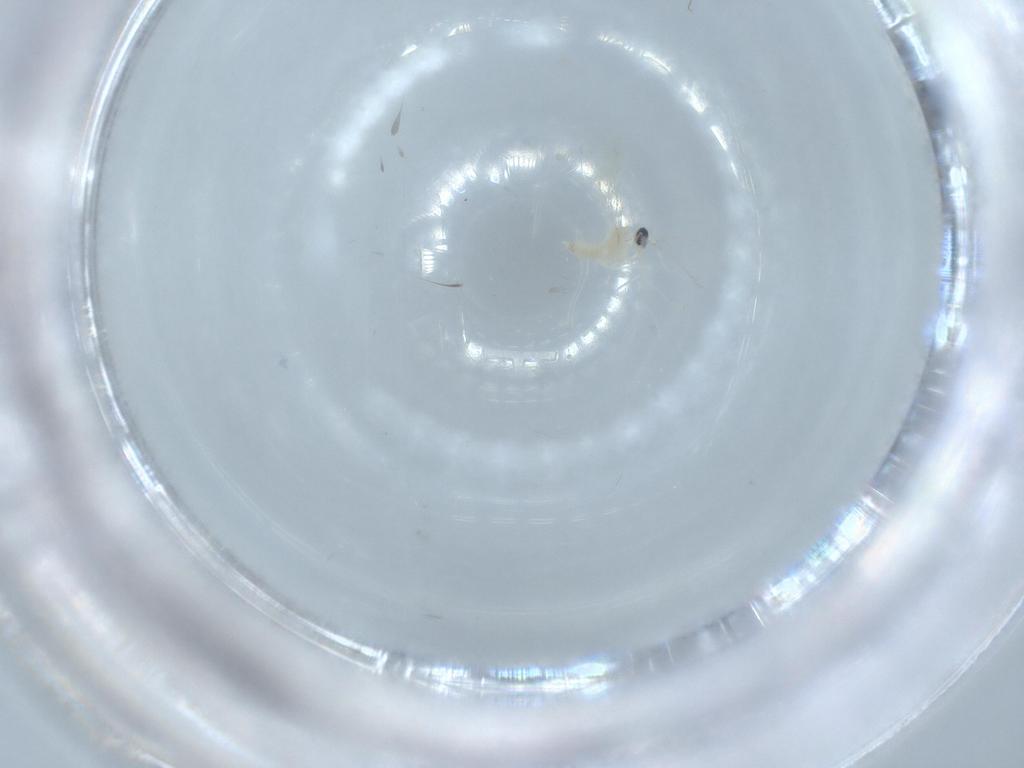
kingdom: Animalia
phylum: Arthropoda
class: Insecta
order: Diptera
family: Cecidomyiidae
